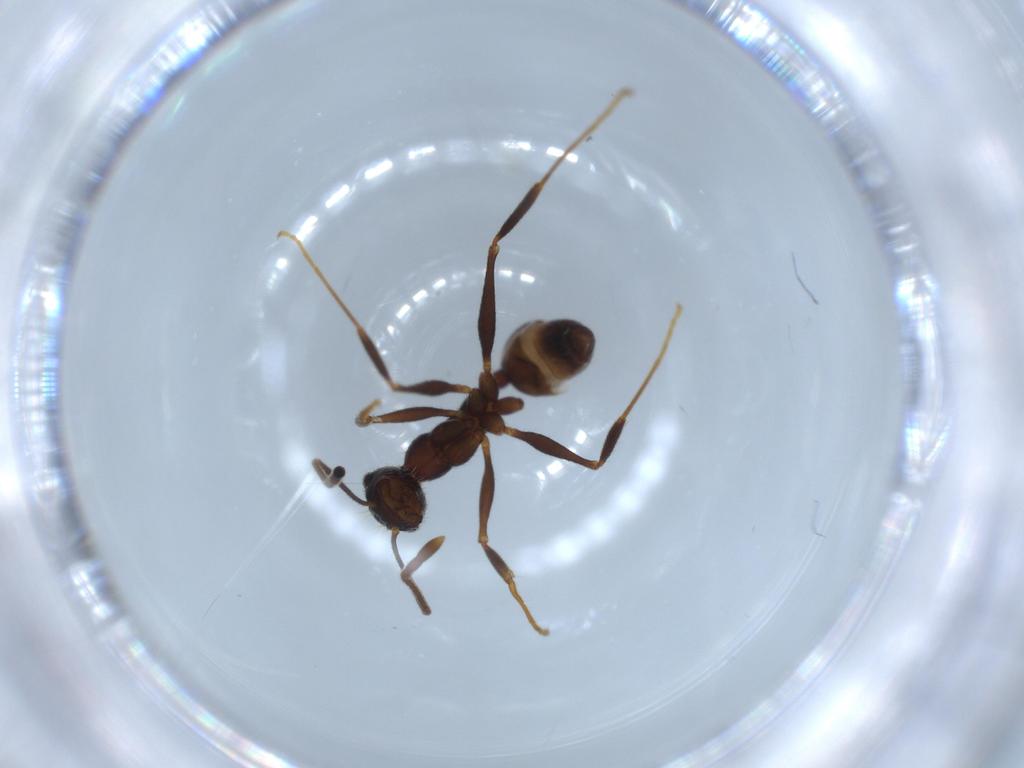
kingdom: Animalia
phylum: Arthropoda
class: Insecta
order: Hymenoptera
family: Formicidae
